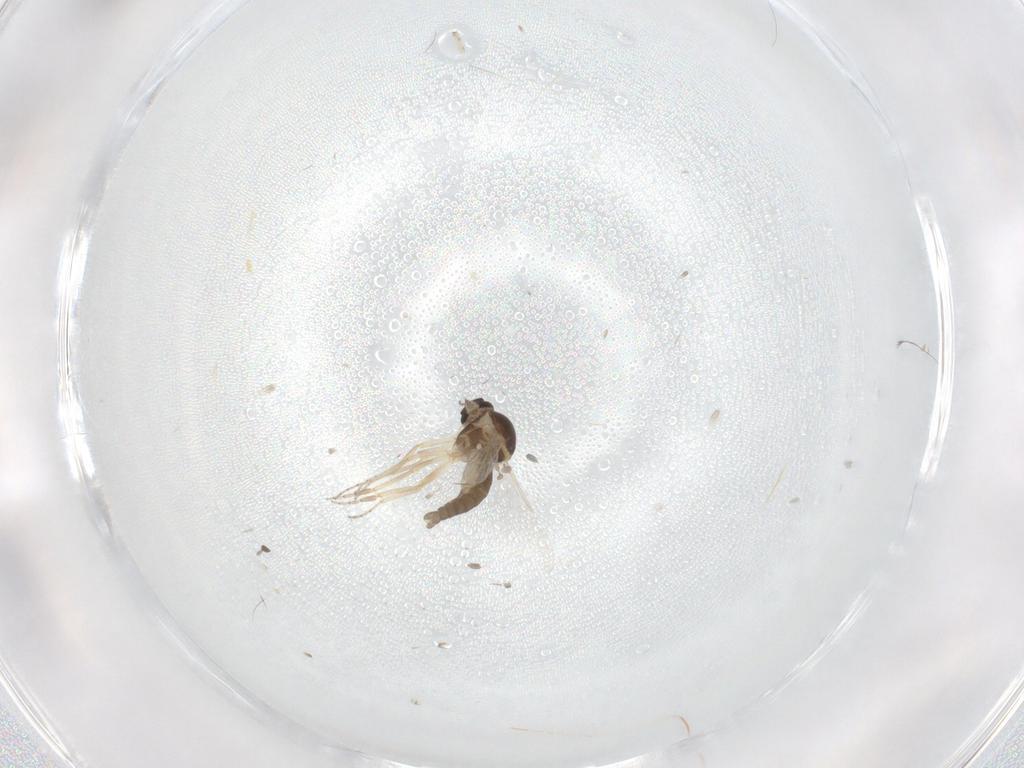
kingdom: Animalia
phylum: Arthropoda
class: Insecta
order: Diptera
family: Ceratopogonidae
